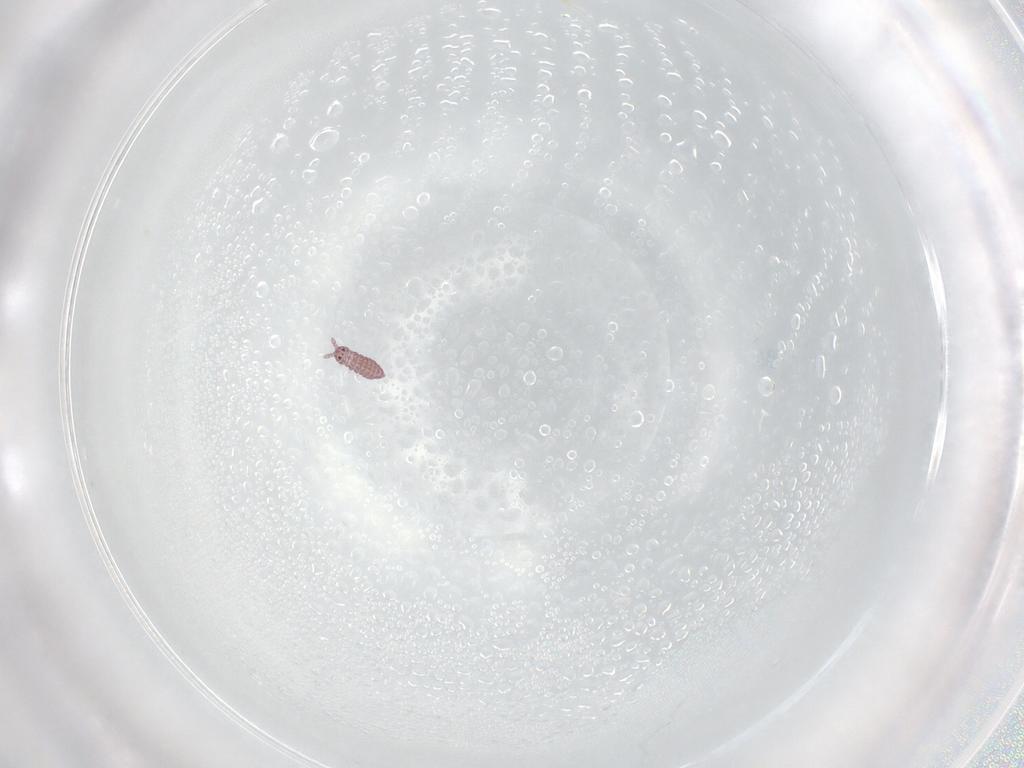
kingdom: Animalia
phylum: Arthropoda
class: Collembola
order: Poduromorpha
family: Hypogastruridae
